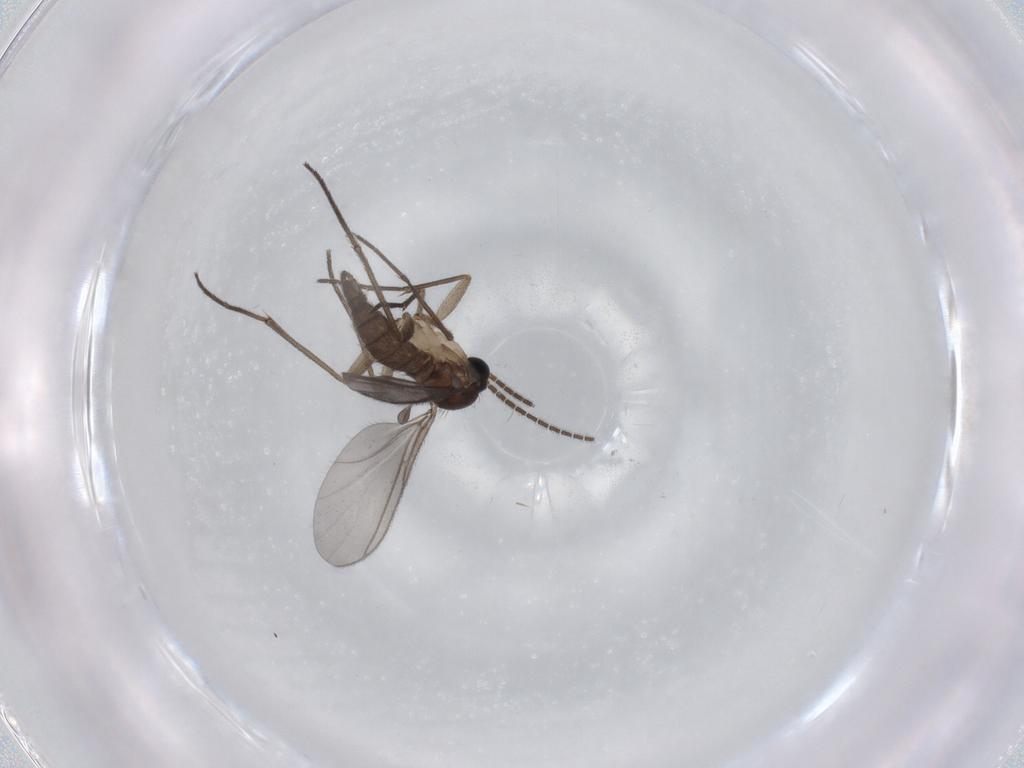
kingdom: Animalia
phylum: Arthropoda
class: Insecta
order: Diptera
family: Sciaridae
